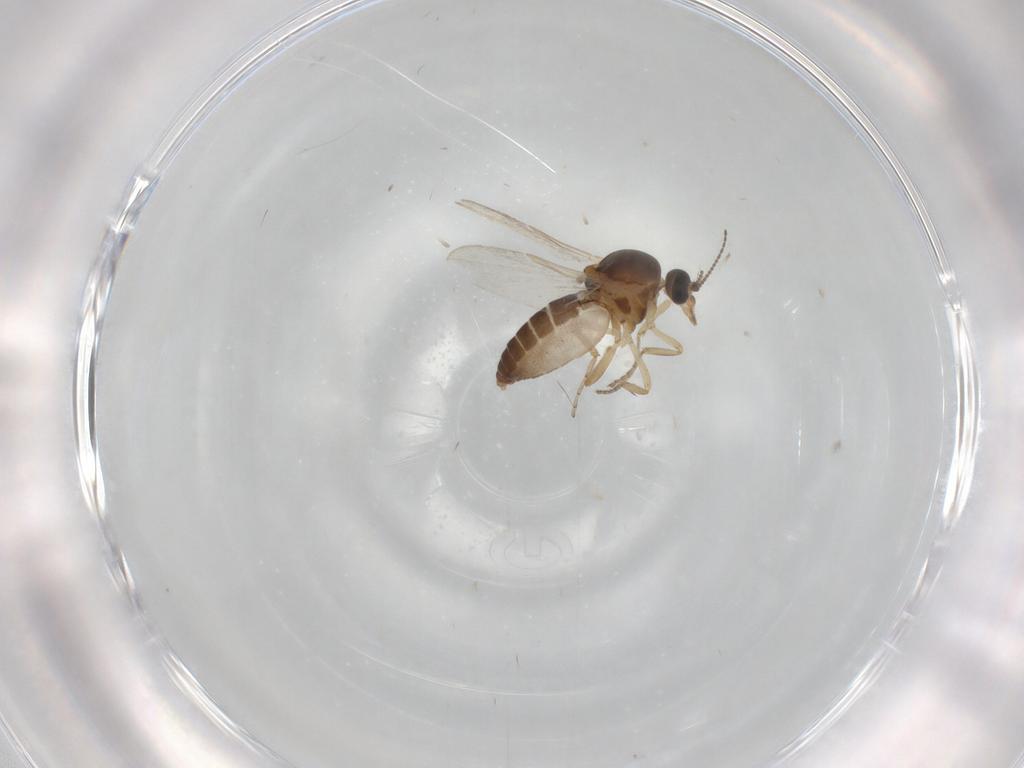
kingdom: Animalia
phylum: Arthropoda
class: Insecta
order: Diptera
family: Ceratopogonidae
